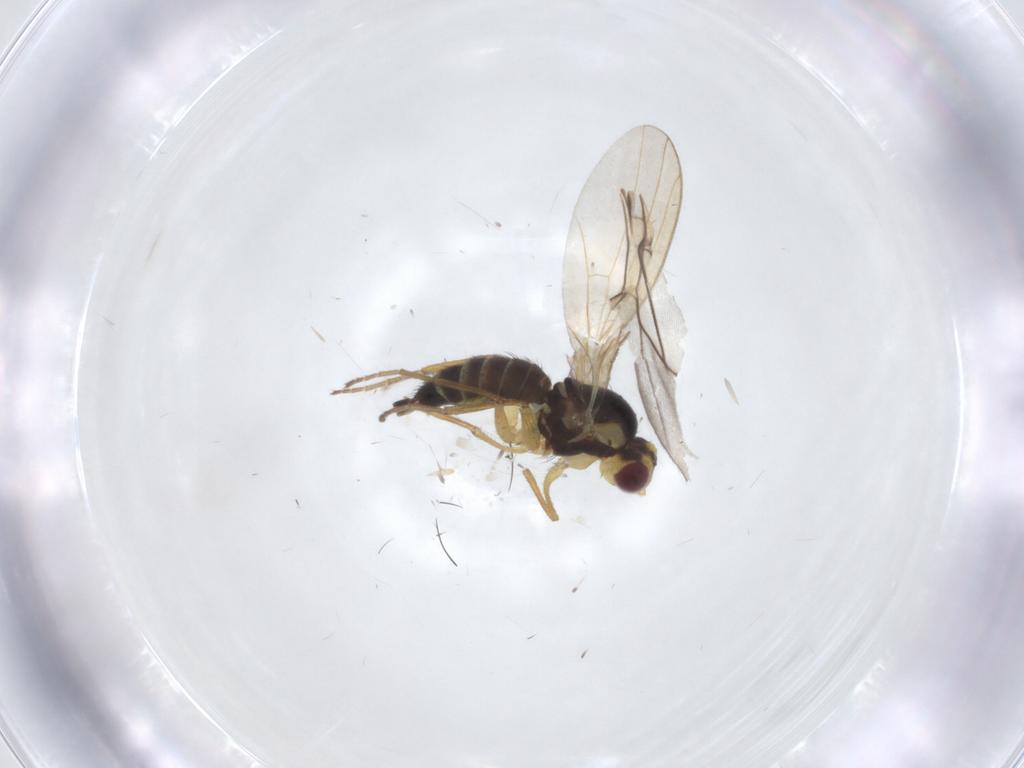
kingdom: Animalia
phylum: Arthropoda
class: Insecta
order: Diptera
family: Agromyzidae
